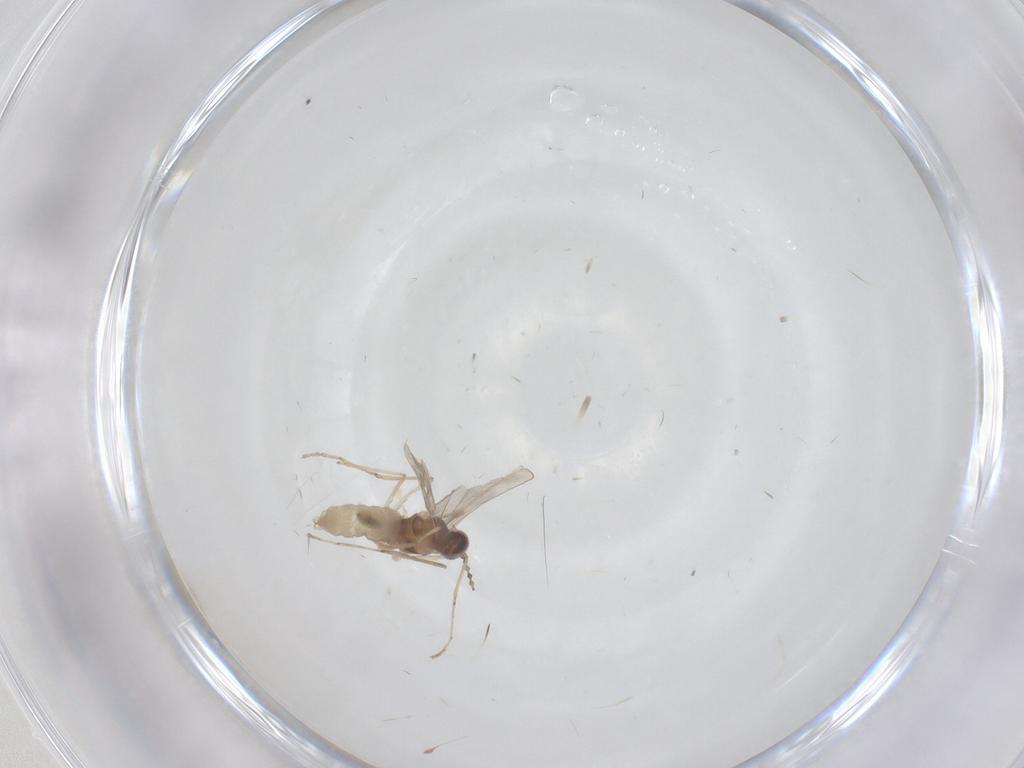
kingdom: Animalia
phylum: Arthropoda
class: Insecta
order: Diptera
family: Cecidomyiidae
